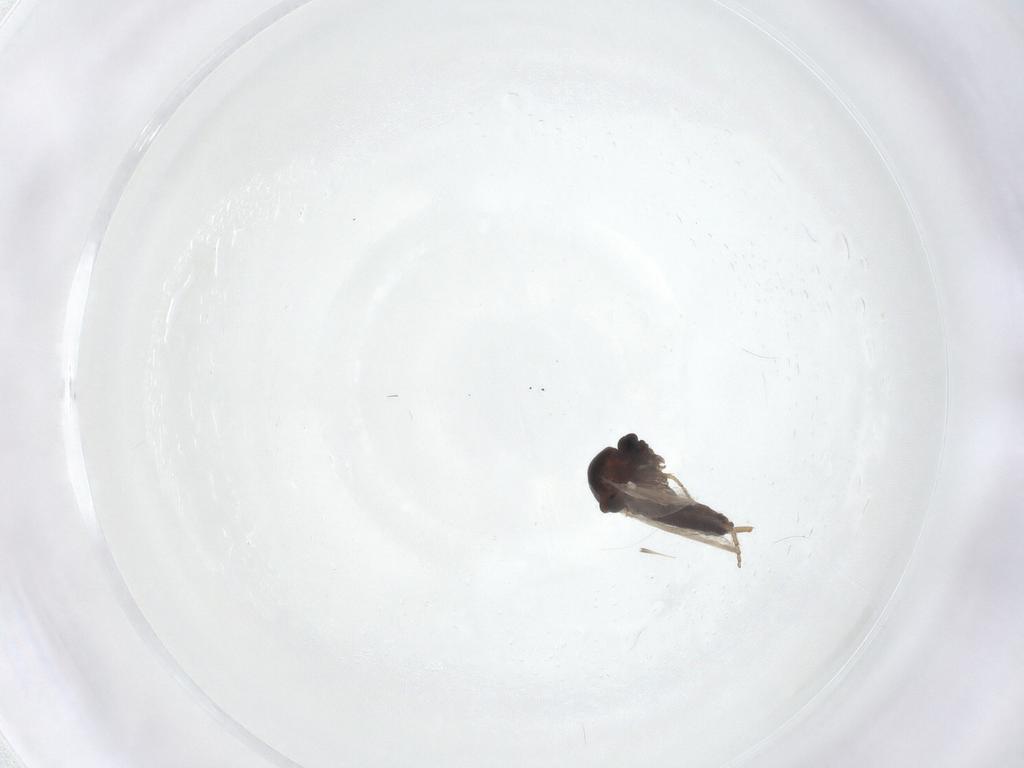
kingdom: Animalia
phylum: Arthropoda
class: Insecta
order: Diptera
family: Ceratopogonidae
